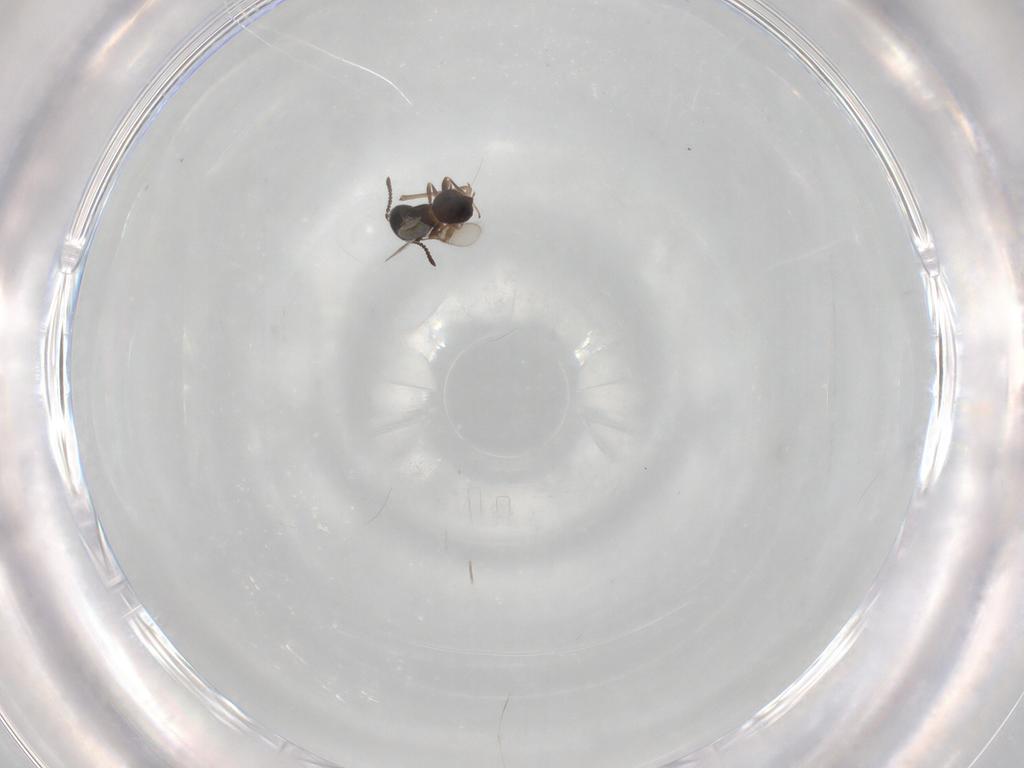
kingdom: Animalia
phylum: Arthropoda
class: Insecta
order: Hymenoptera
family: Scelionidae
